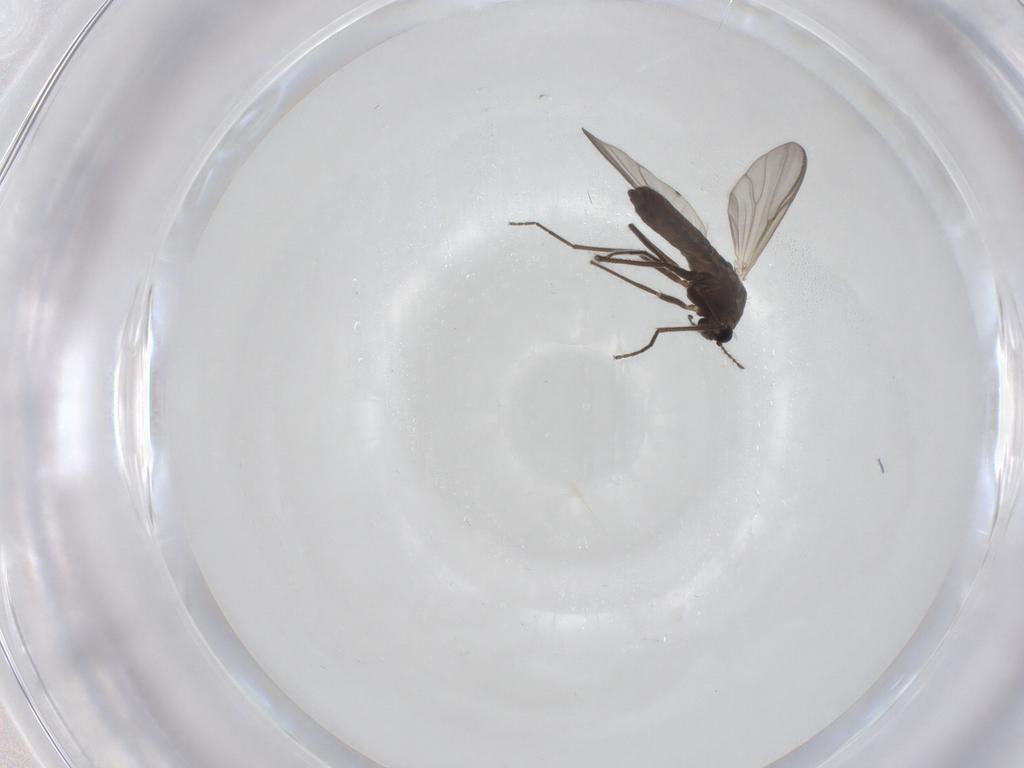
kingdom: Animalia
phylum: Arthropoda
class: Insecta
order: Diptera
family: Chironomidae
